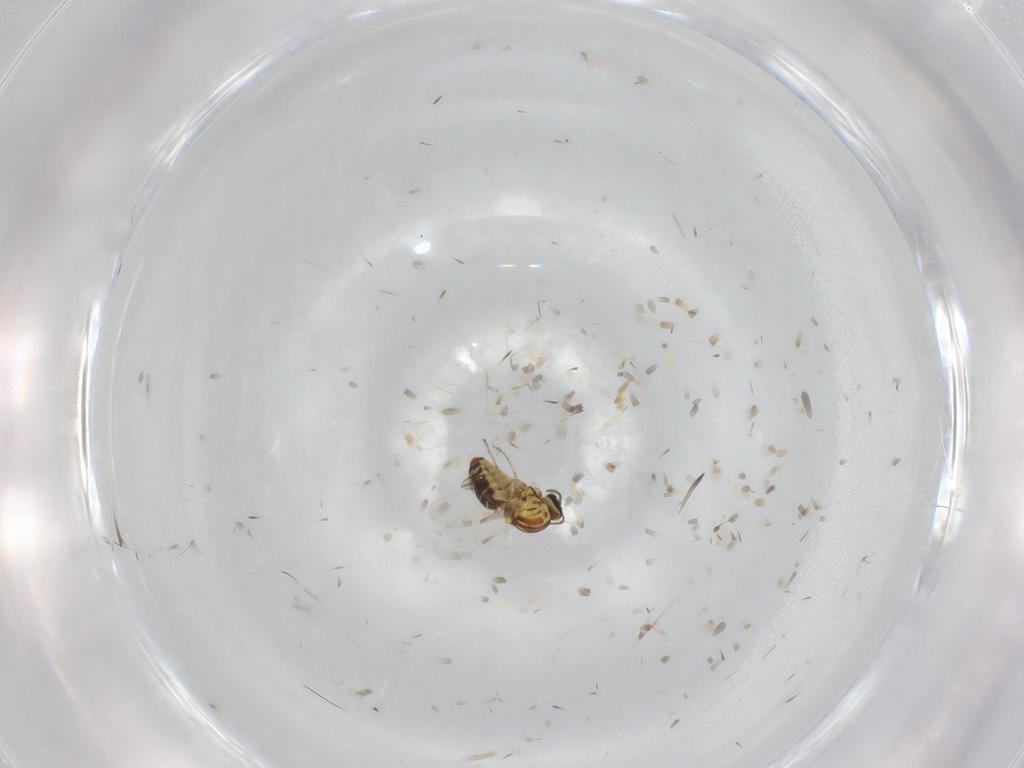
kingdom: Animalia
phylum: Arthropoda
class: Insecta
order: Diptera
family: Ceratopogonidae
